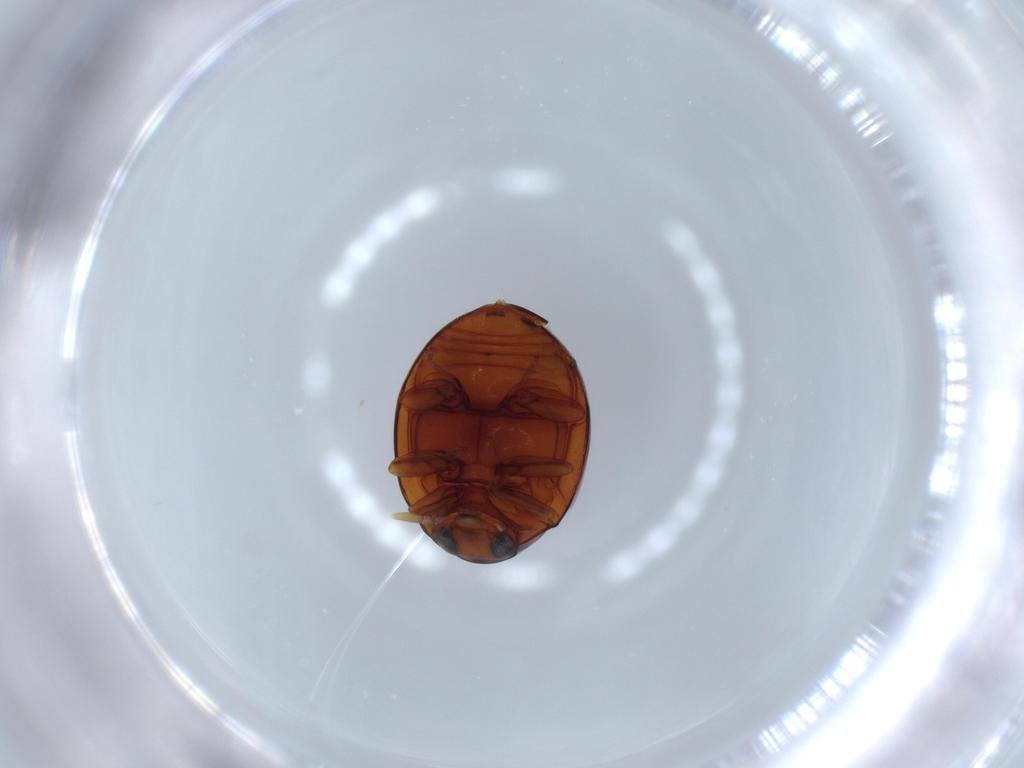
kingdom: Animalia
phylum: Arthropoda
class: Insecta
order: Coleoptera
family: Coccinellidae
